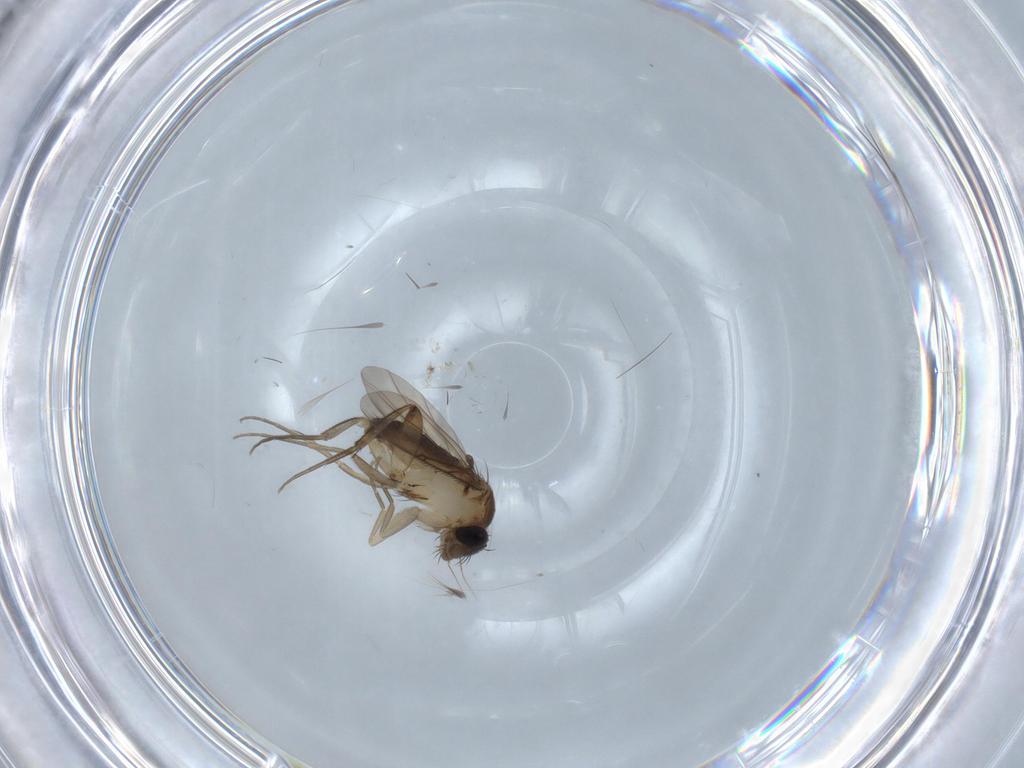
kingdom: Animalia
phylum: Arthropoda
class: Insecta
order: Diptera
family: Phoridae
